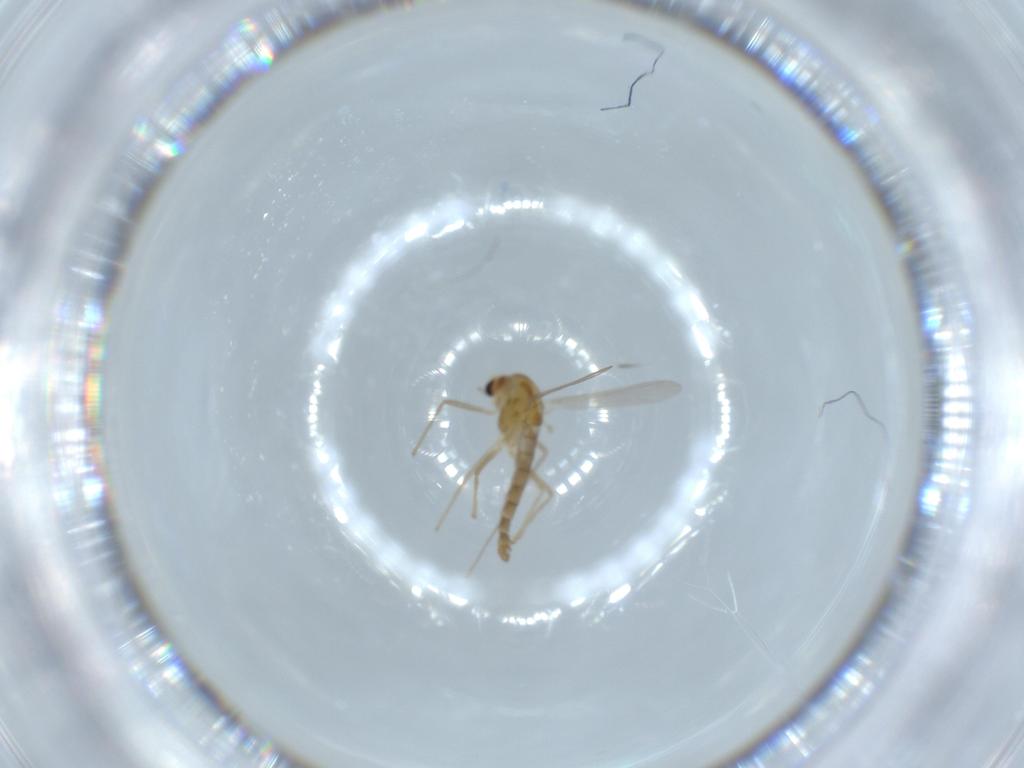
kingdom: Animalia
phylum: Arthropoda
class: Insecta
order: Diptera
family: Chironomidae
